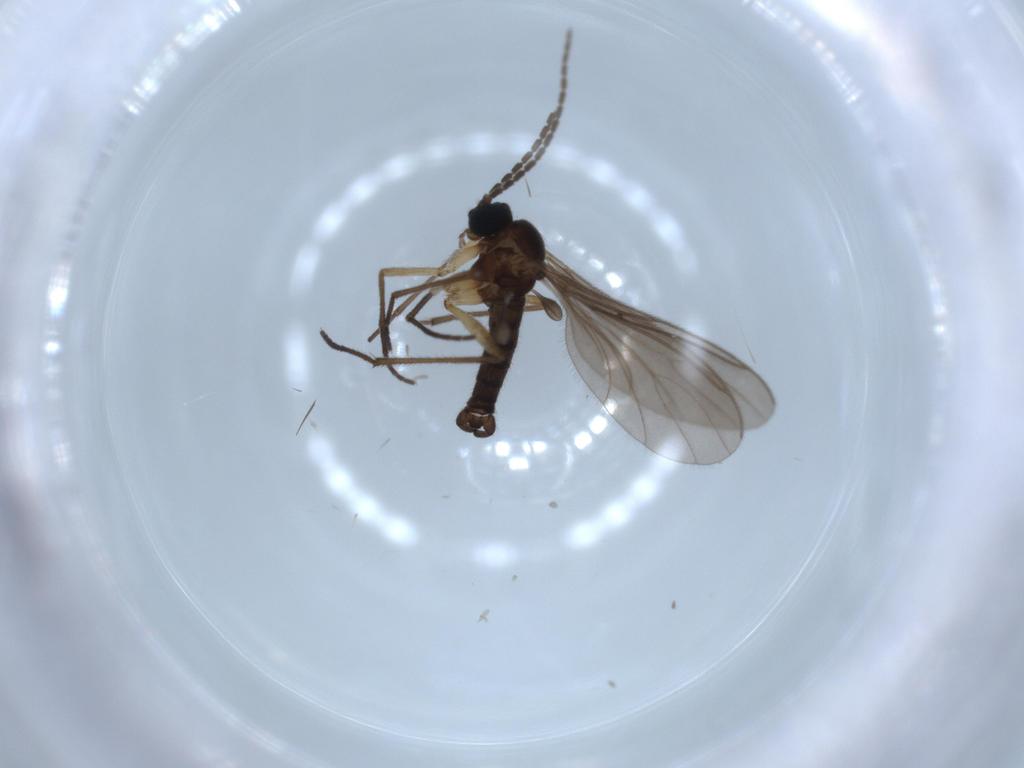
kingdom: Animalia
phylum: Arthropoda
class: Insecta
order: Diptera
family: Sciaridae
